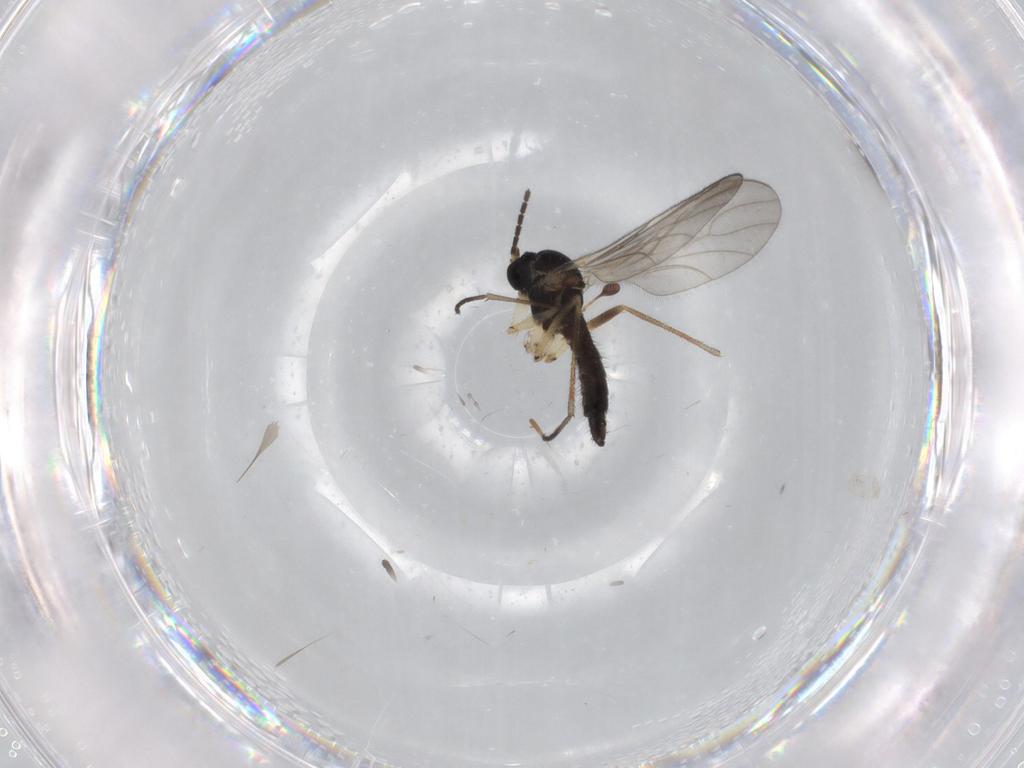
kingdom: Animalia
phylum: Arthropoda
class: Insecta
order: Diptera
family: Sciaridae
